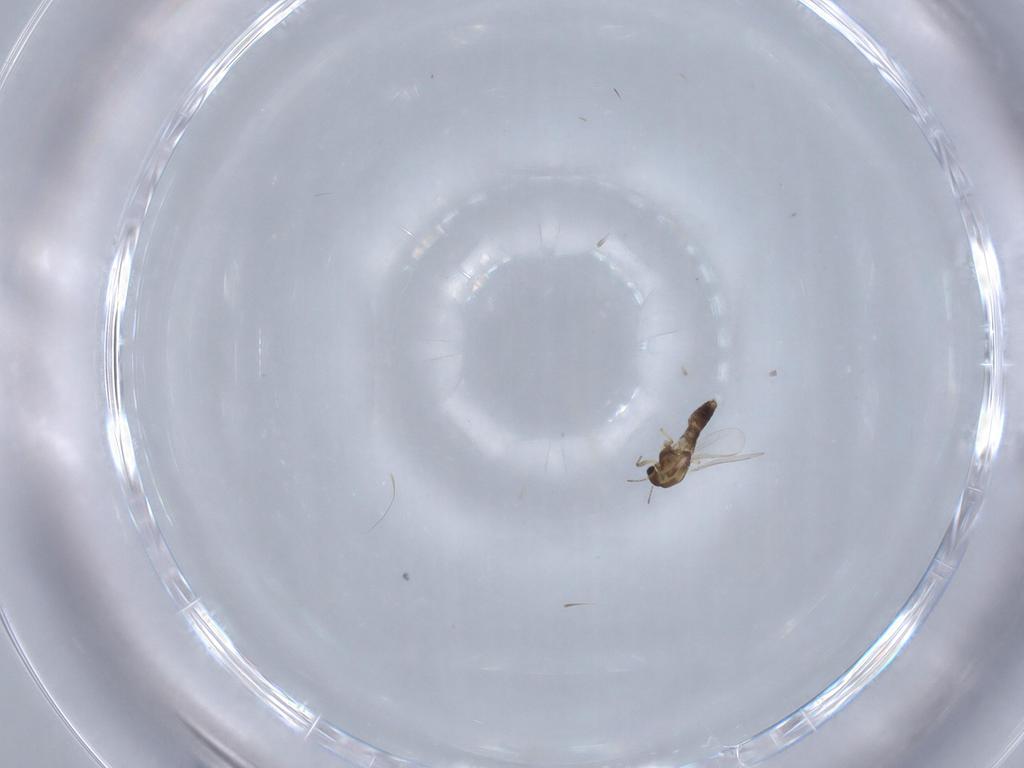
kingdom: Animalia
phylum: Arthropoda
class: Insecta
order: Diptera
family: Chironomidae
